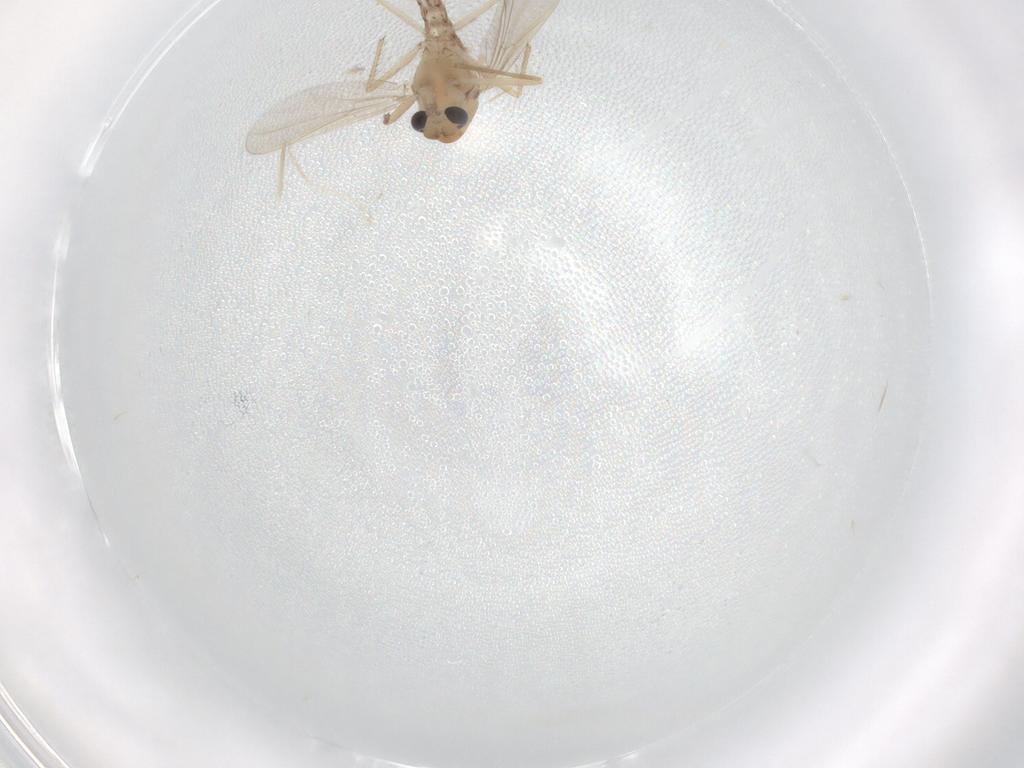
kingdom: Animalia
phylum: Arthropoda
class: Insecta
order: Diptera
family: Chironomidae
